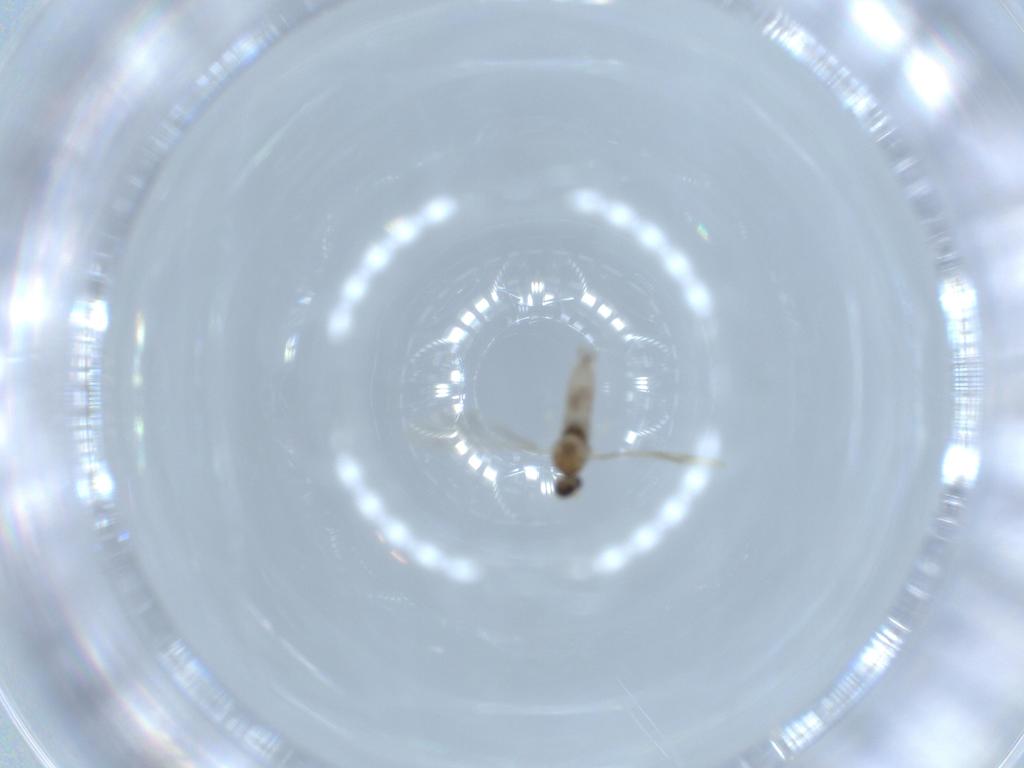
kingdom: Animalia
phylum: Arthropoda
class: Insecta
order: Diptera
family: Cecidomyiidae
